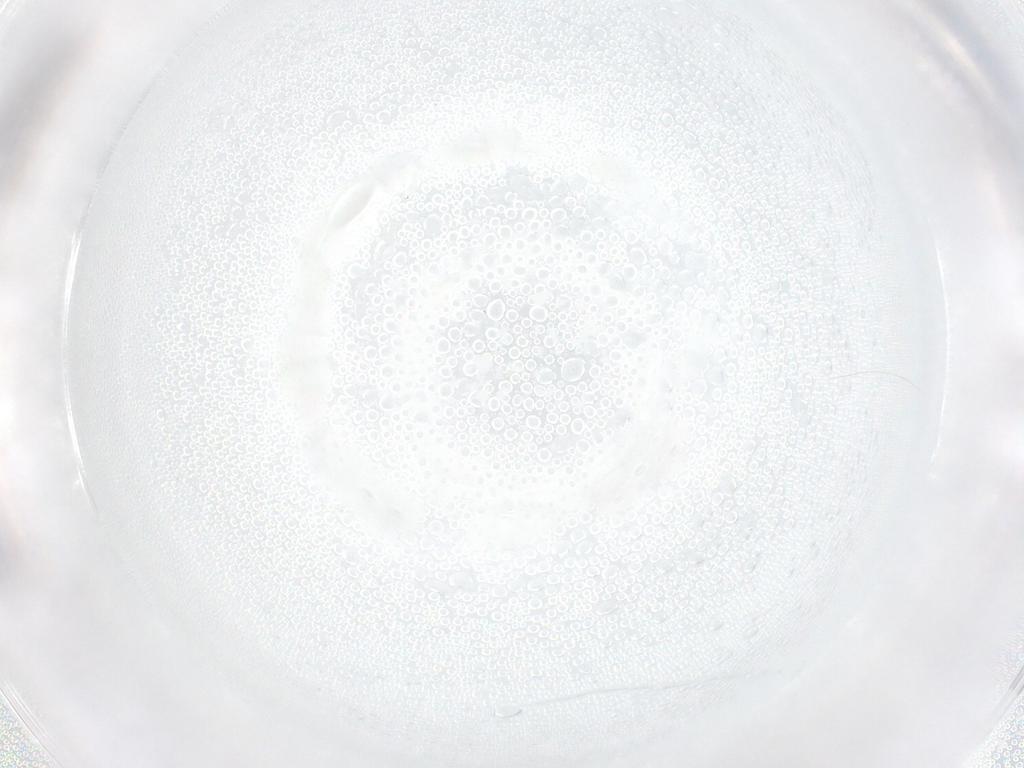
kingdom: Animalia
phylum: Arthropoda
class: Insecta
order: Diptera
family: Chironomidae
